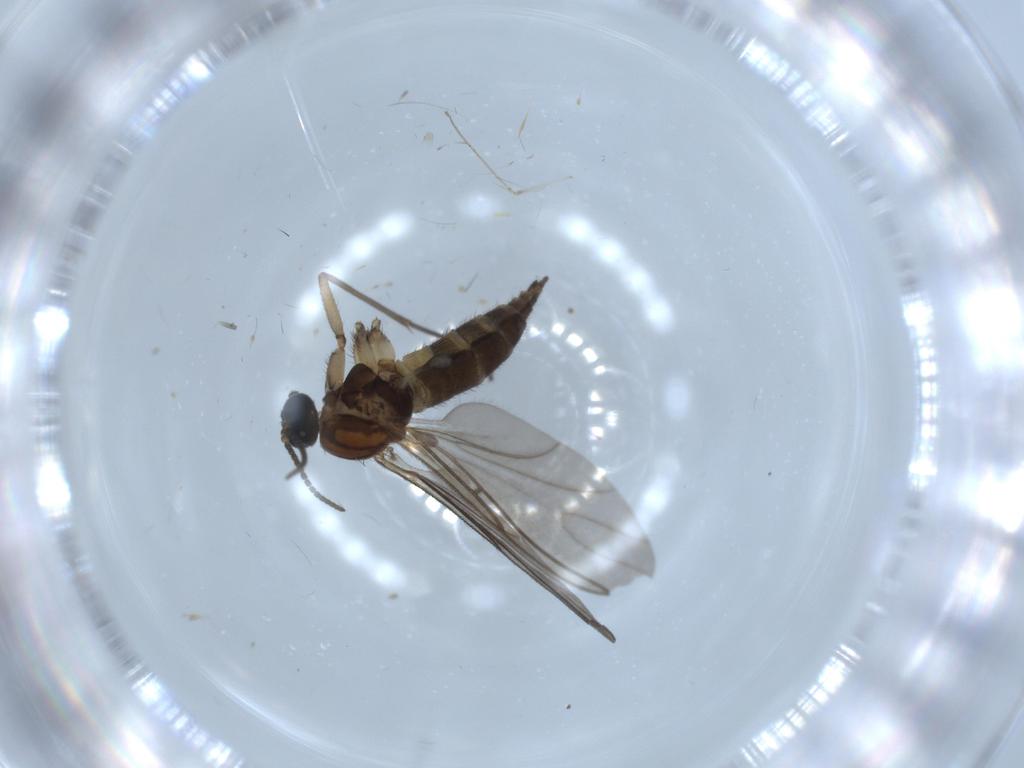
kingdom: Animalia
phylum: Arthropoda
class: Insecta
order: Diptera
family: Sciaridae
